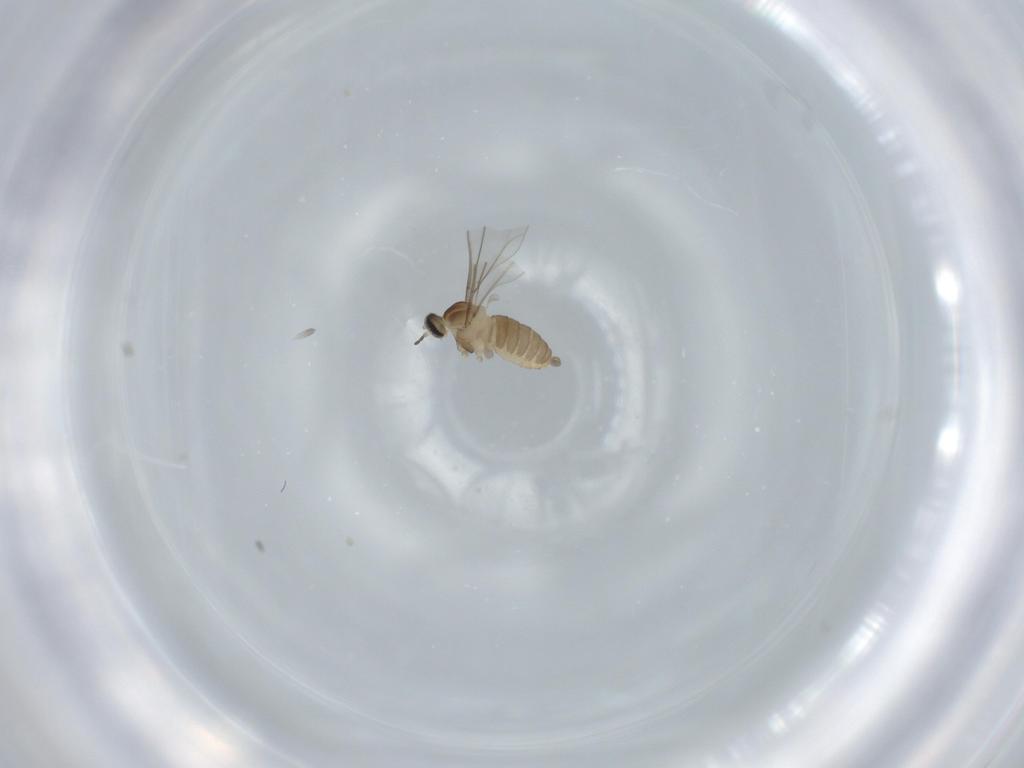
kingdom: Animalia
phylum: Arthropoda
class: Insecta
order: Diptera
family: Cecidomyiidae
